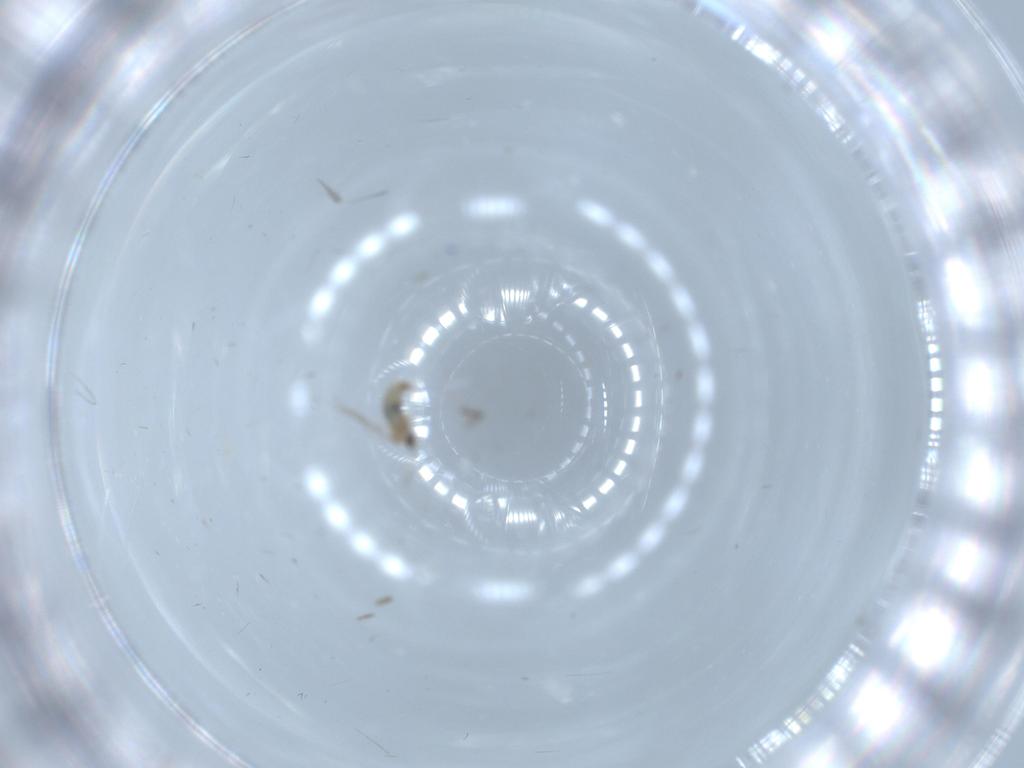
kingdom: Animalia
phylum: Arthropoda
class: Insecta
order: Diptera
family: Cecidomyiidae
